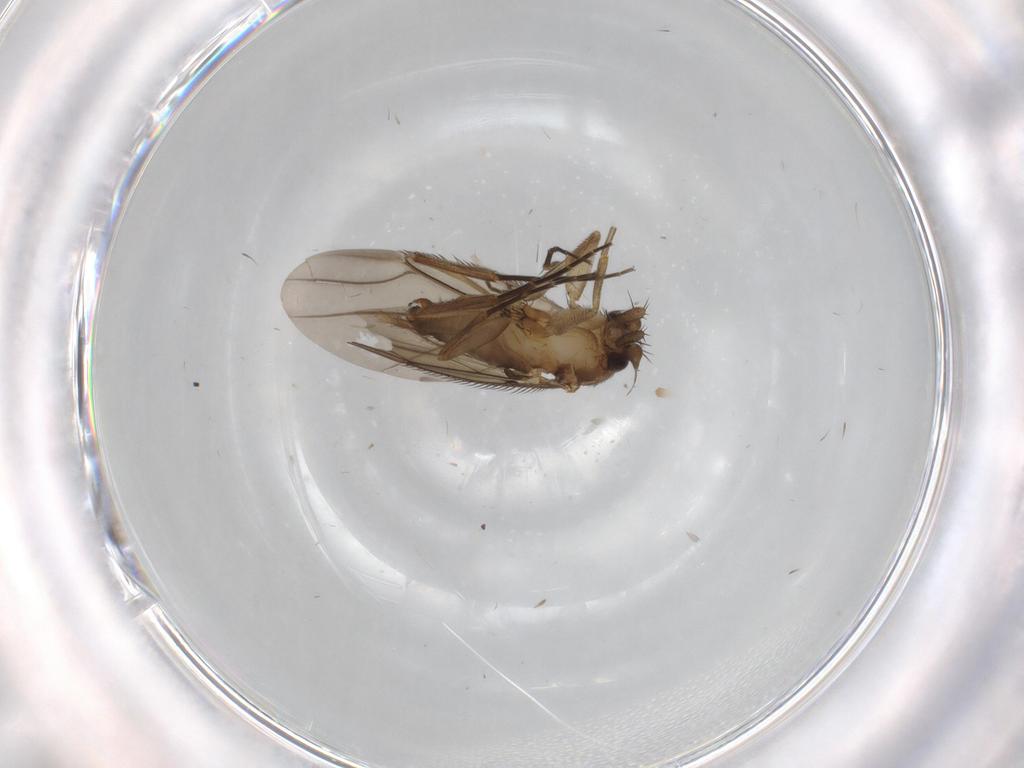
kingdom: Animalia
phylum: Arthropoda
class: Insecta
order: Diptera
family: Phoridae
